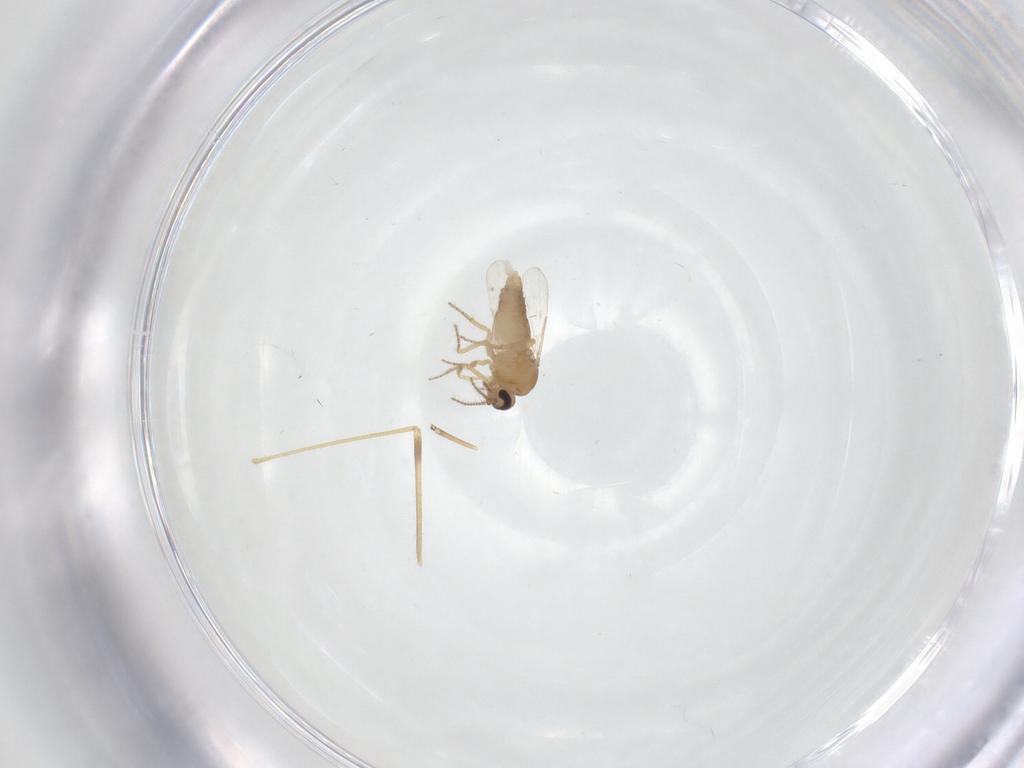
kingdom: Animalia
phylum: Arthropoda
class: Insecta
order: Diptera
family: Limoniidae
